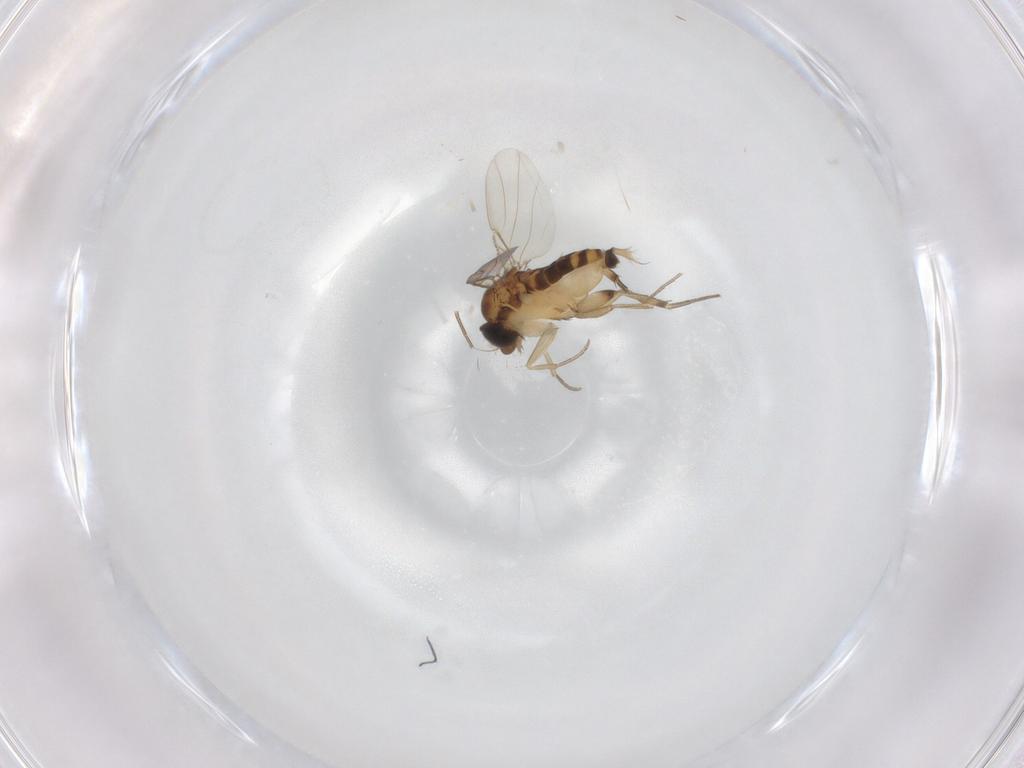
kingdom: Animalia
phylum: Arthropoda
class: Insecta
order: Diptera
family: Phoridae
